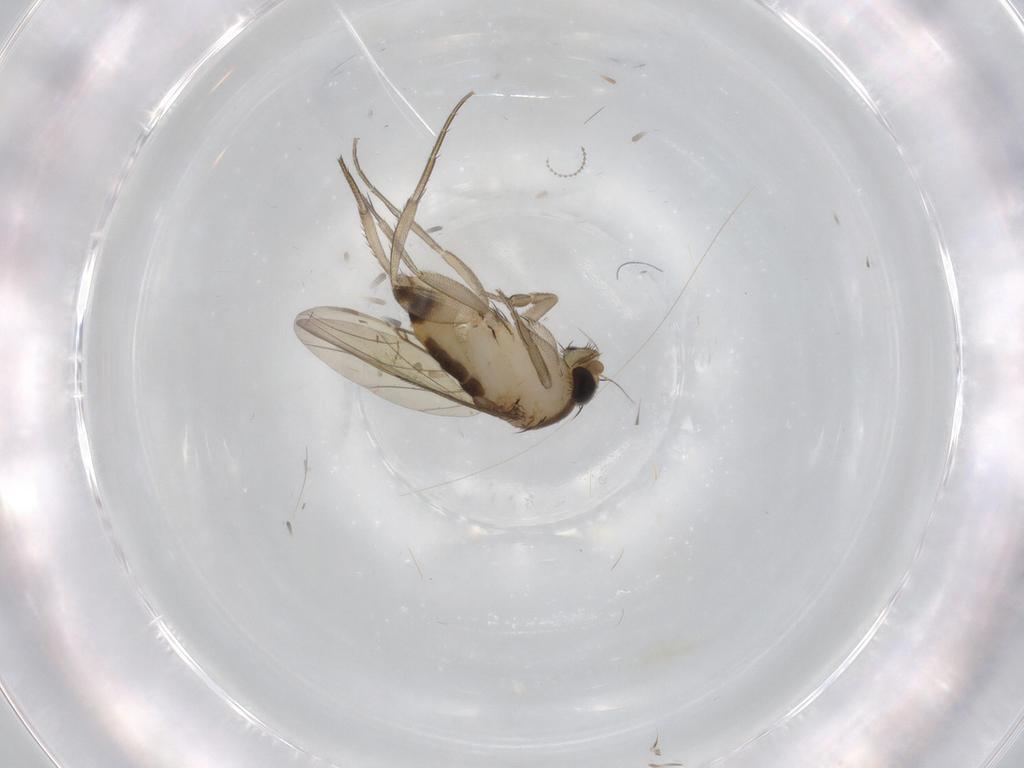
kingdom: Animalia
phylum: Arthropoda
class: Insecta
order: Diptera
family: Phoridae
